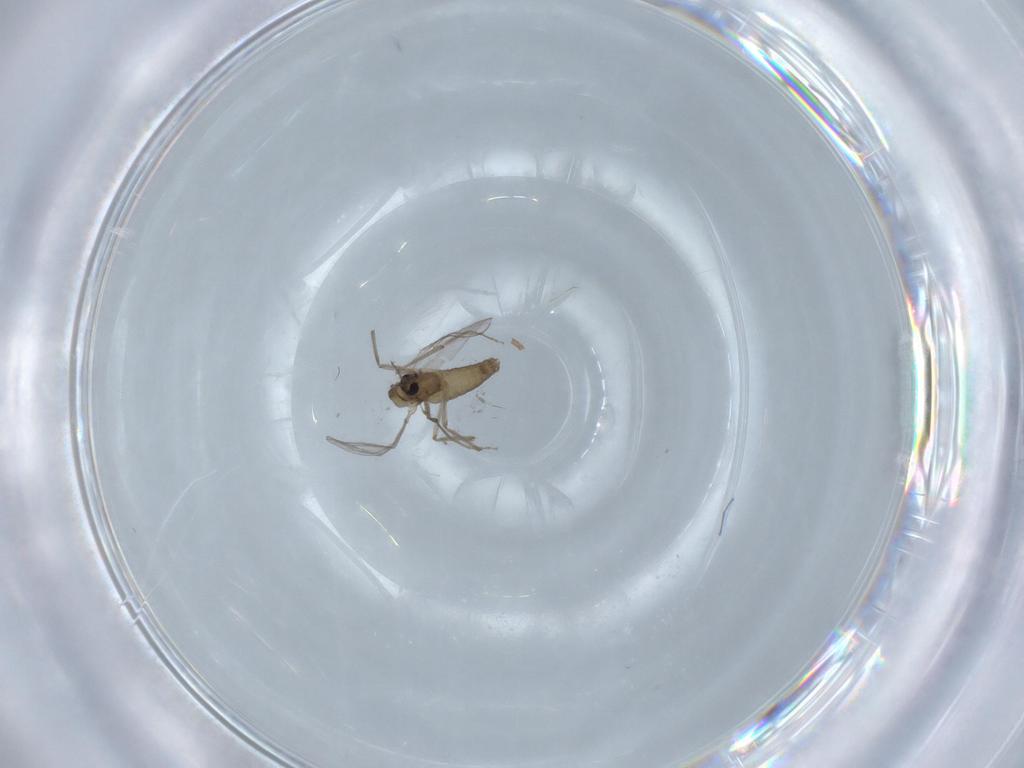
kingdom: Animalia
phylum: Arthropoda
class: Insecta
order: Diptera
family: Chironomidae
